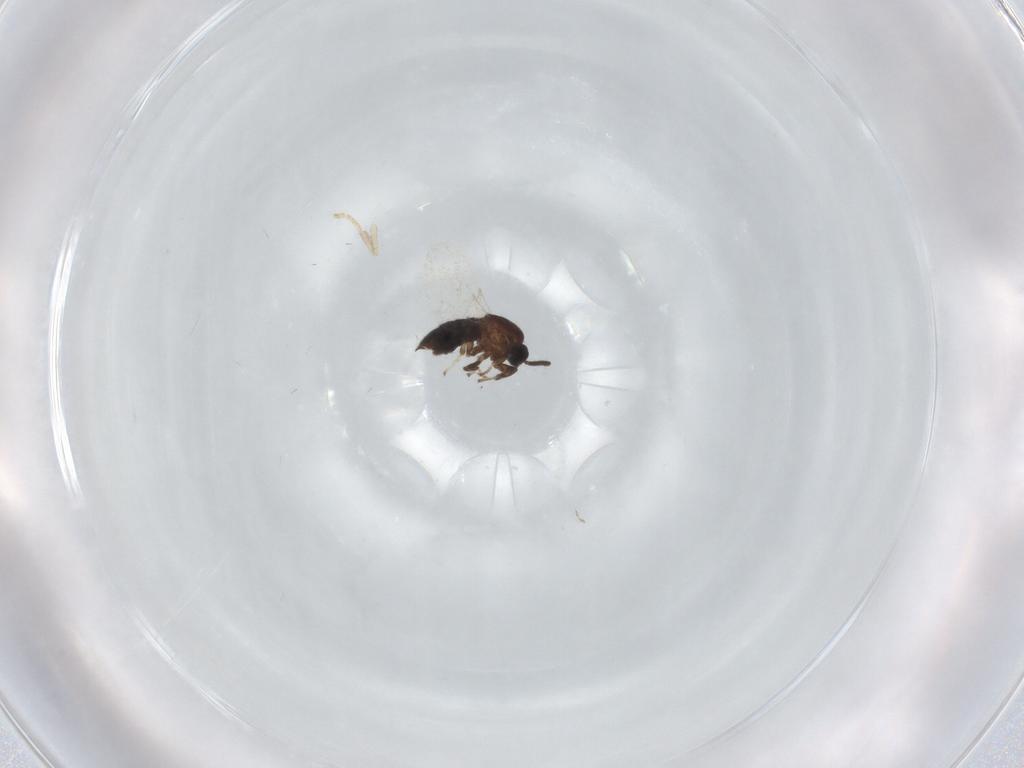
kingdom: Animalia
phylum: Arthropoda
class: Insecta
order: Diptera
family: Scatopsidae
